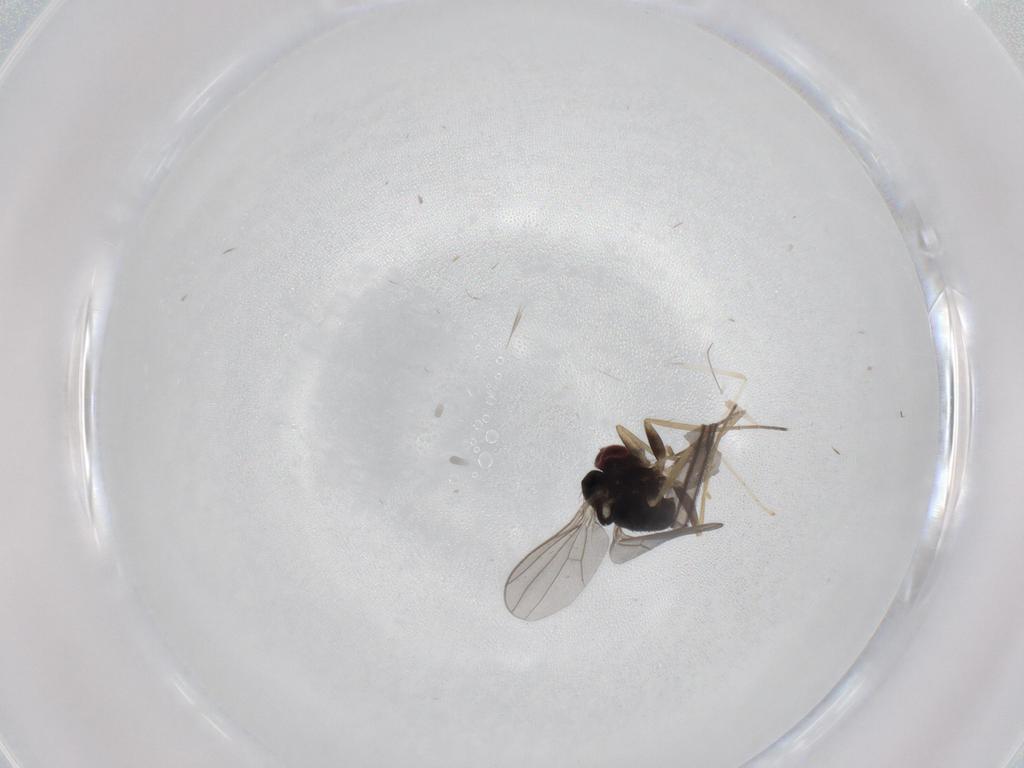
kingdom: Animalia
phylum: Arthropoda
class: Insecta
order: Diptera
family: Cecidomyiidae
